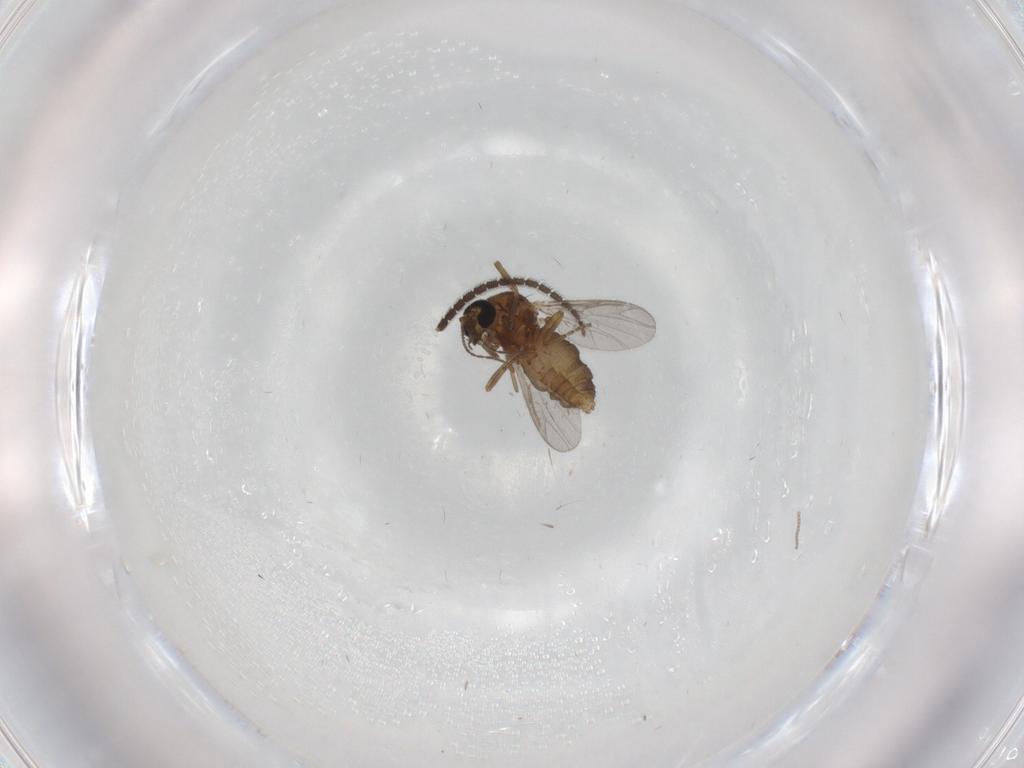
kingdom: Animalia
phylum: Arthropoda
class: Insecta
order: Diptera
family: Ceratopogonidae
